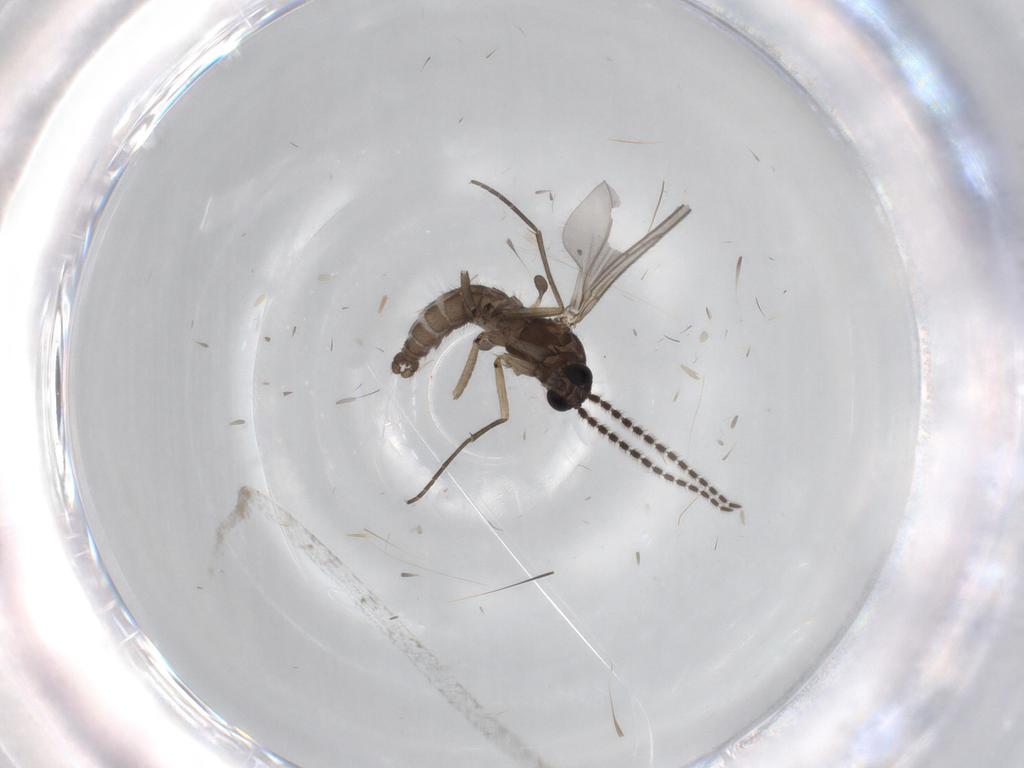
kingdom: Animalia
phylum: Arthropoda
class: Insecta
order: Diptera
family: Sciaridae
